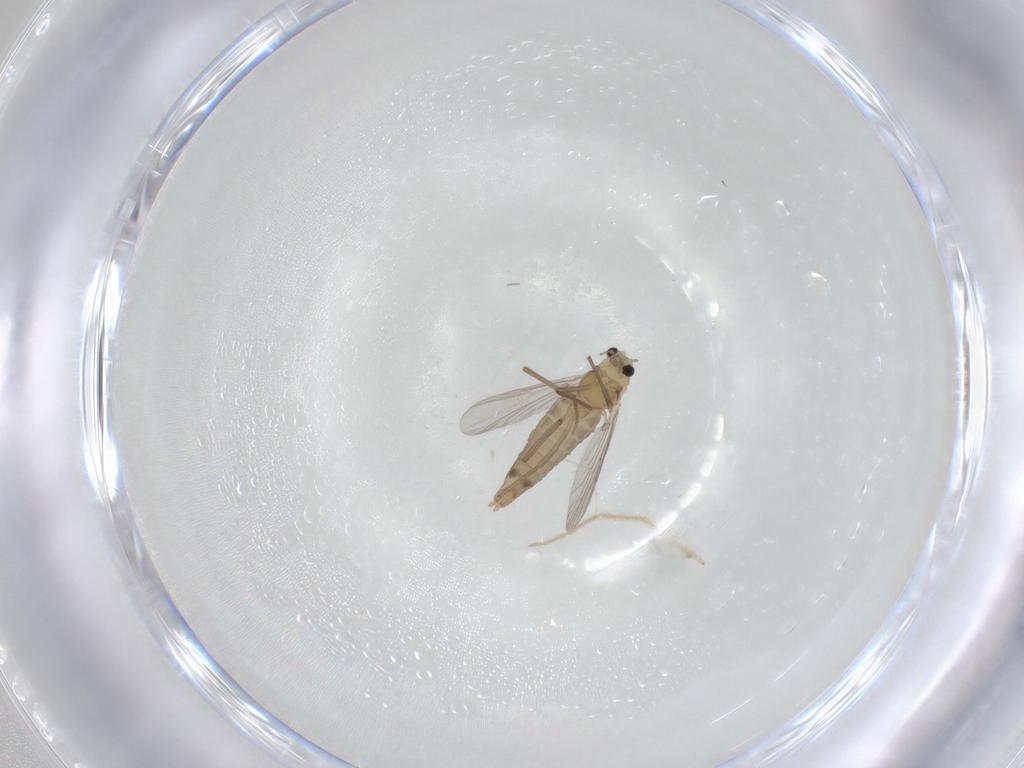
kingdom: Animalia
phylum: Arthropoda
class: Insecta
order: Diptera
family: Chironomidae
